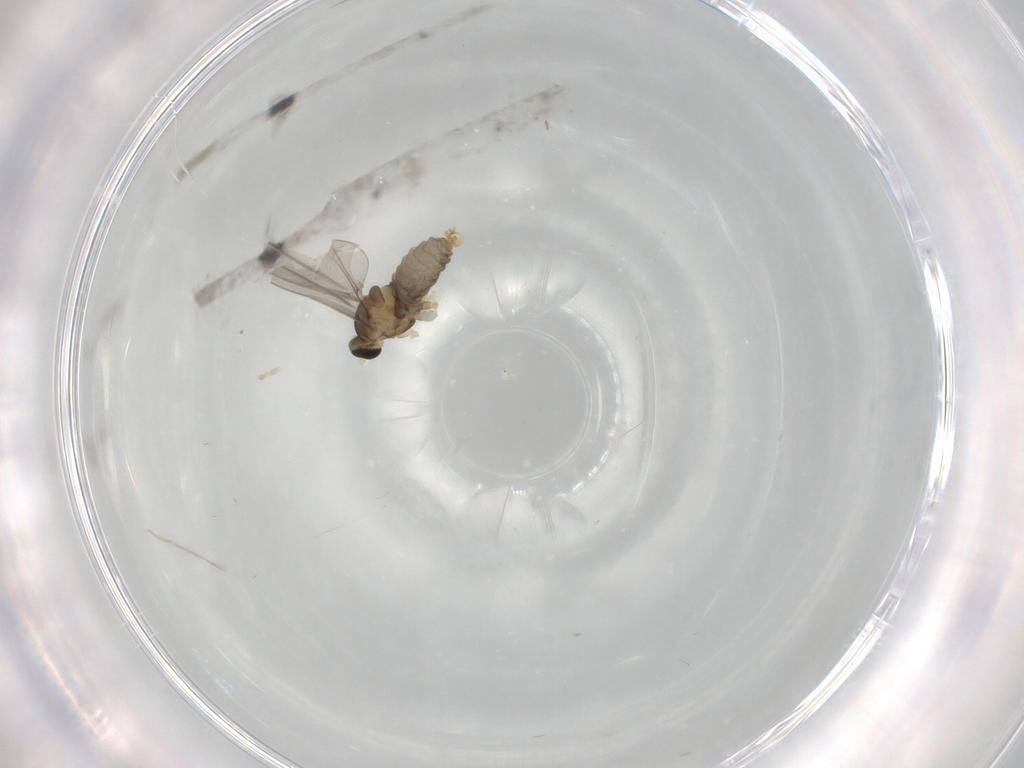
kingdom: Animalia
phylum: Arthropoda
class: Insecta
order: Diptera
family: Cecidomyiidae
